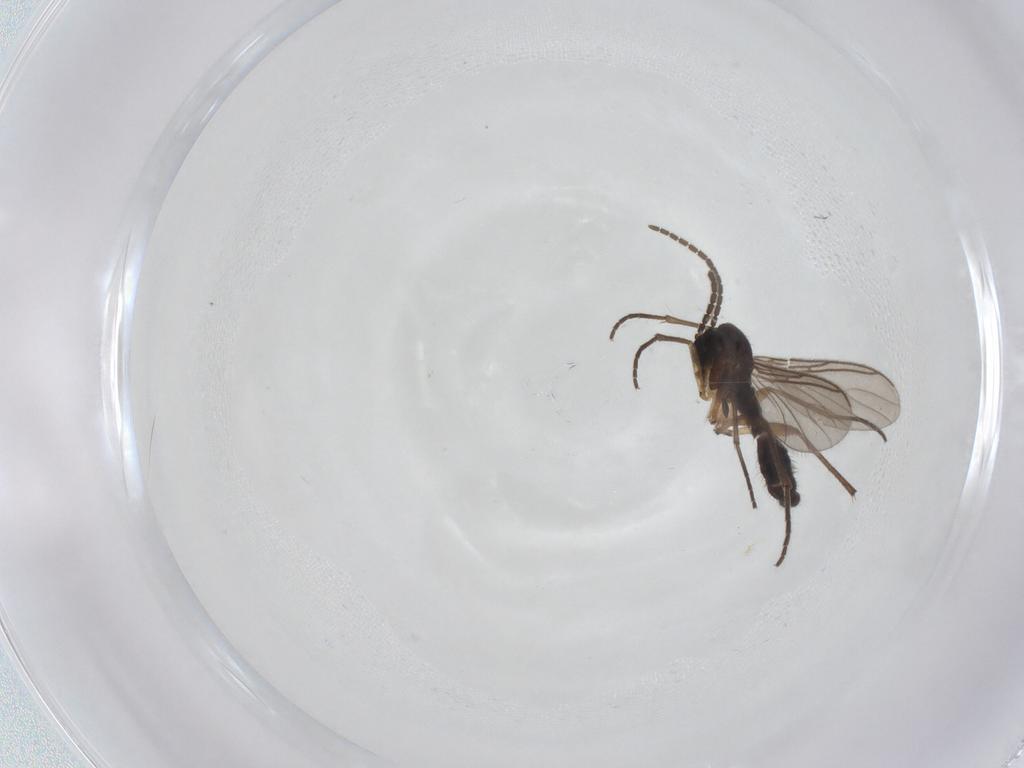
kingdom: Animalia
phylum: Arthropoda
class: Insecta
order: Diptera
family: Sciaridae
